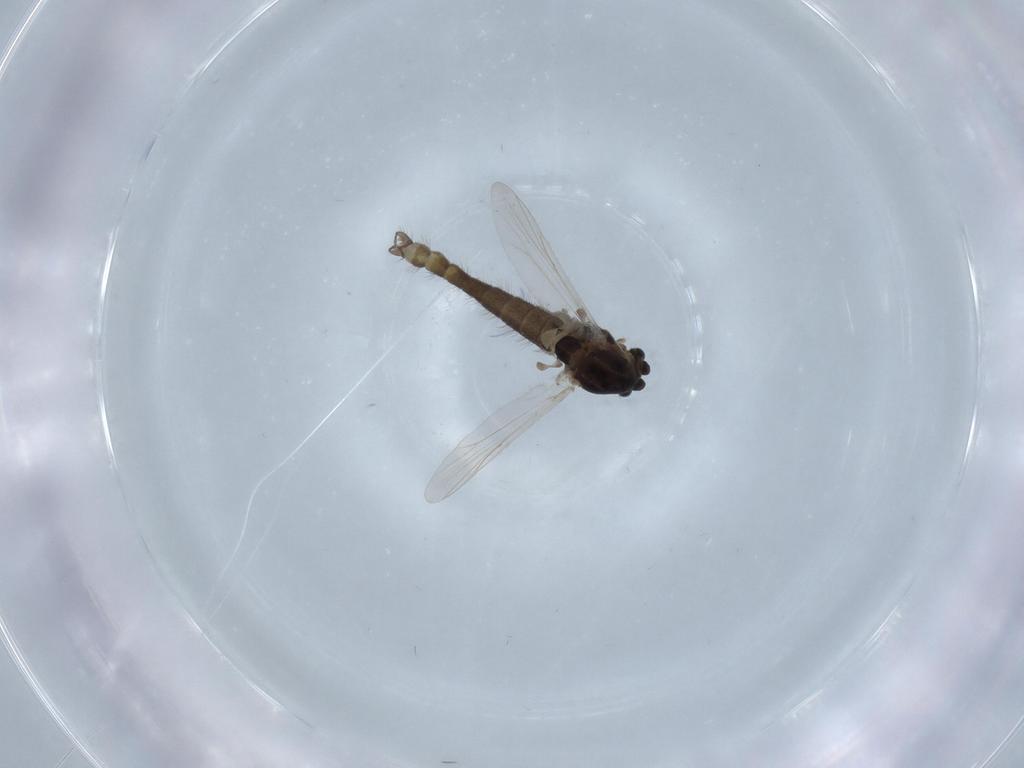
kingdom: Animalia
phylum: Arthropoda
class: Insecta
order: Diptera
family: Chironomidae
